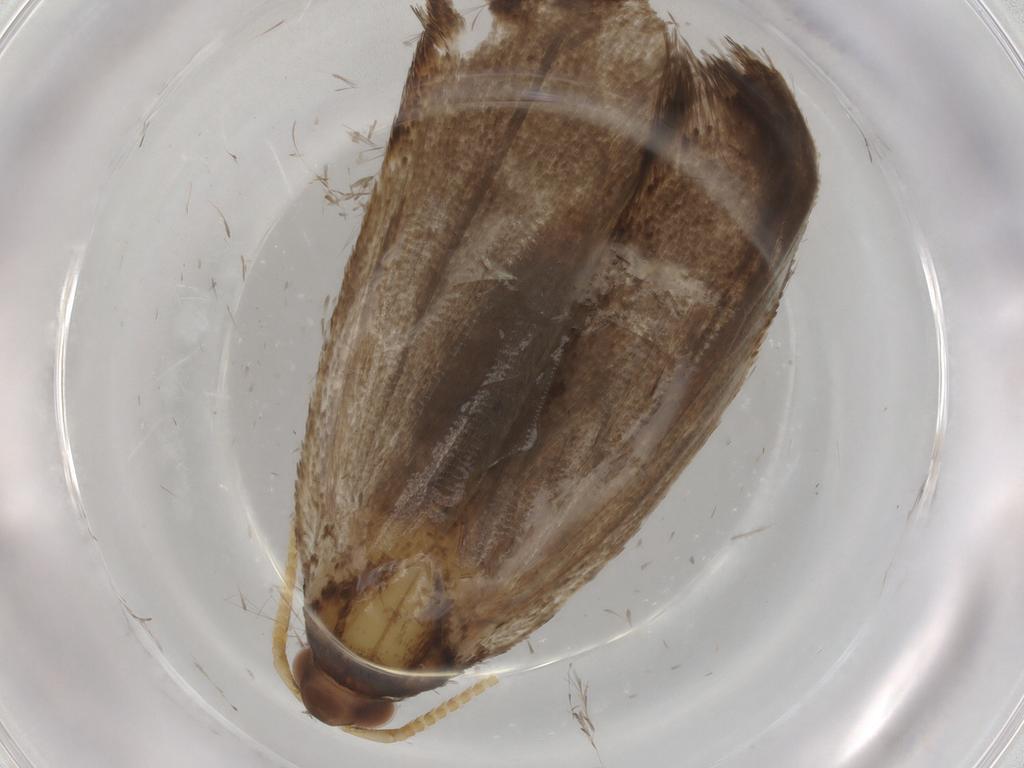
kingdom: Animalia
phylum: Arthropoda
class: Insecta
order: Lepidoptera
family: Lecithoceridae
